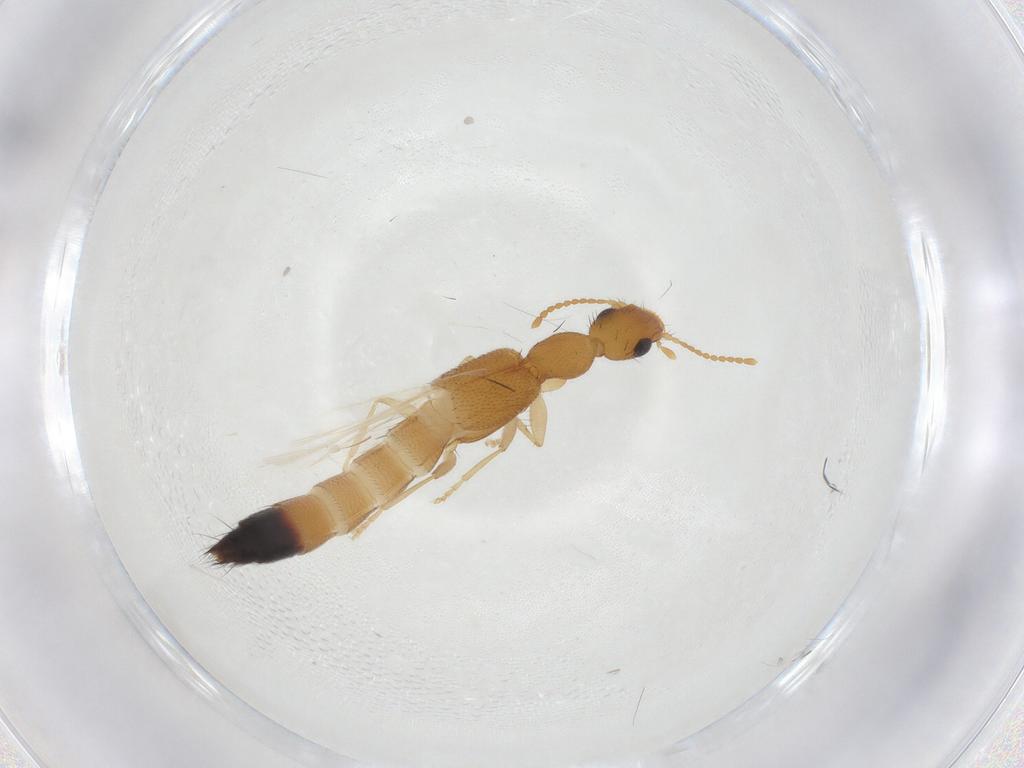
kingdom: Animalia
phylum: Arthropoda
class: Insecta
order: Coleoptera
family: Staphylinidae
